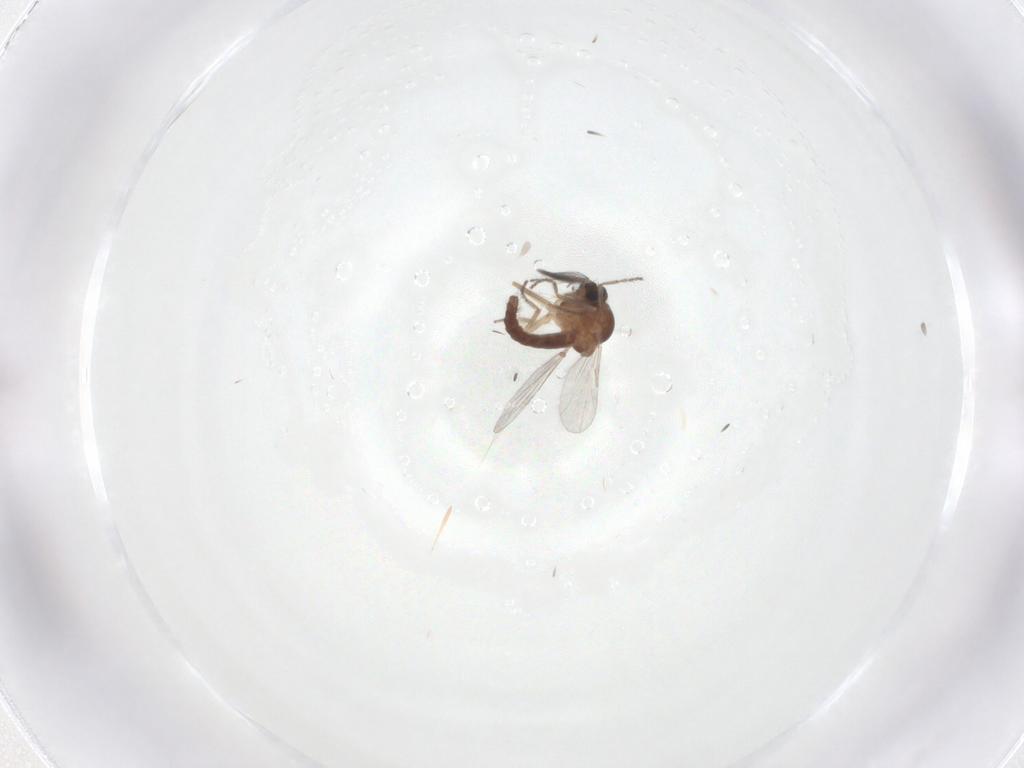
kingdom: Animalia
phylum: Arthropoda
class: Insecta
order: Diptera
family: Ceratopogonidae
